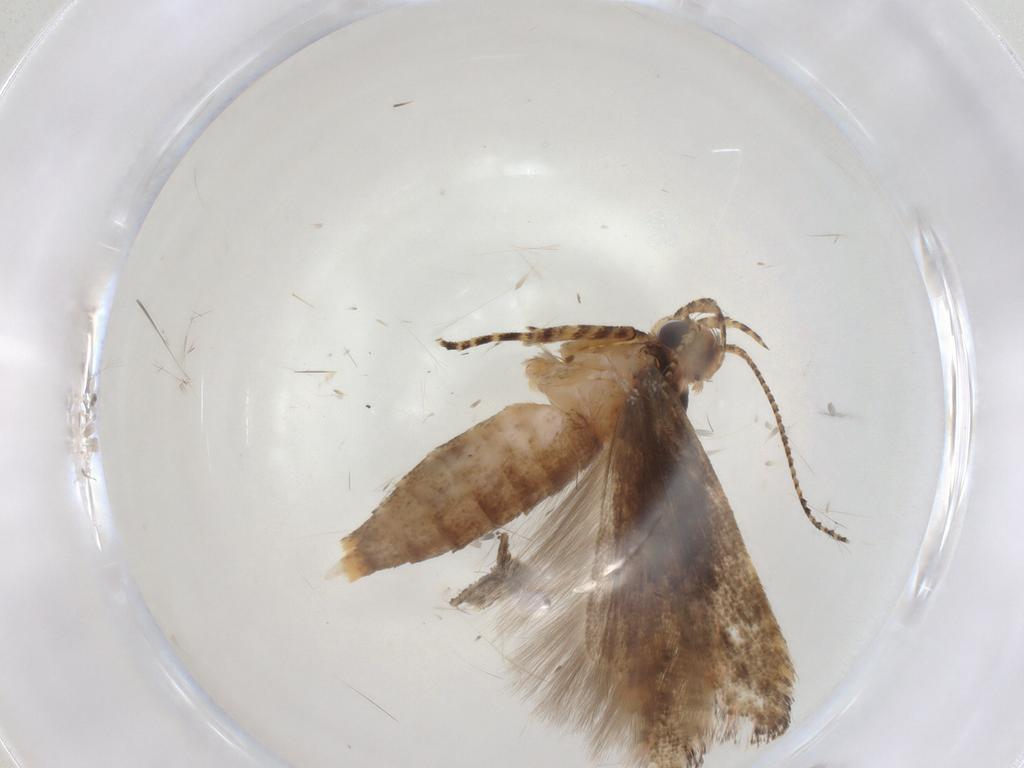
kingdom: Animalia
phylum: Arthropoda
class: Insecta
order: Lepidoptera
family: Gelechiidae
